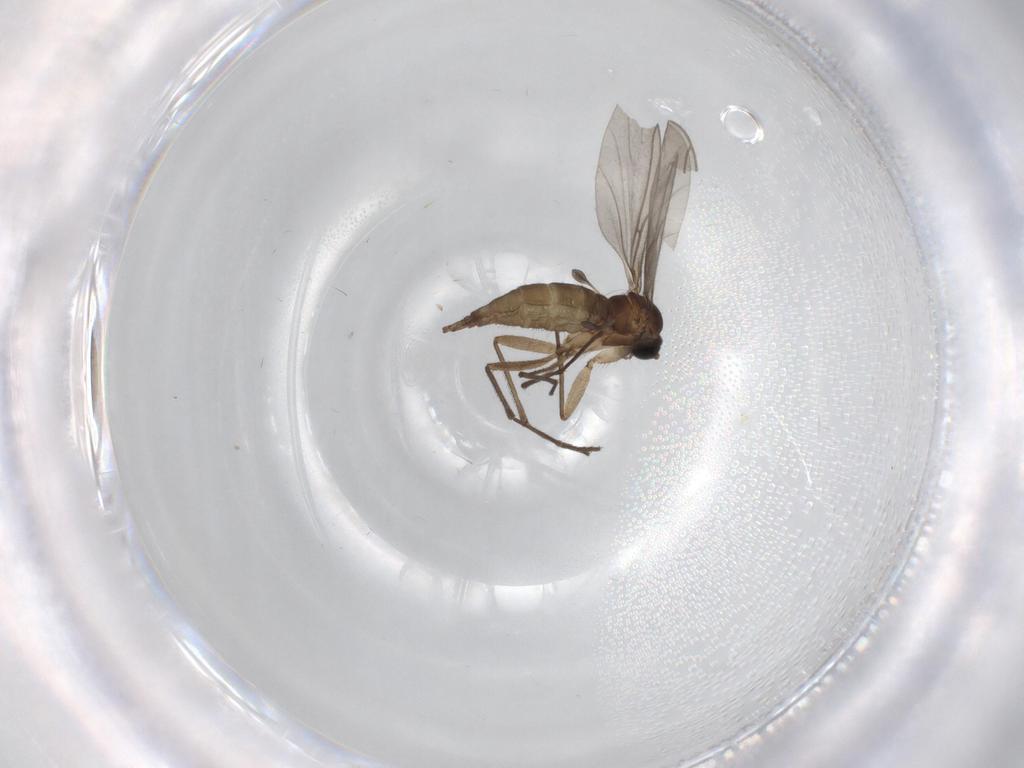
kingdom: Animalia
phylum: Arthropoda
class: Insecta
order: Diptera
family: Sciaridae
